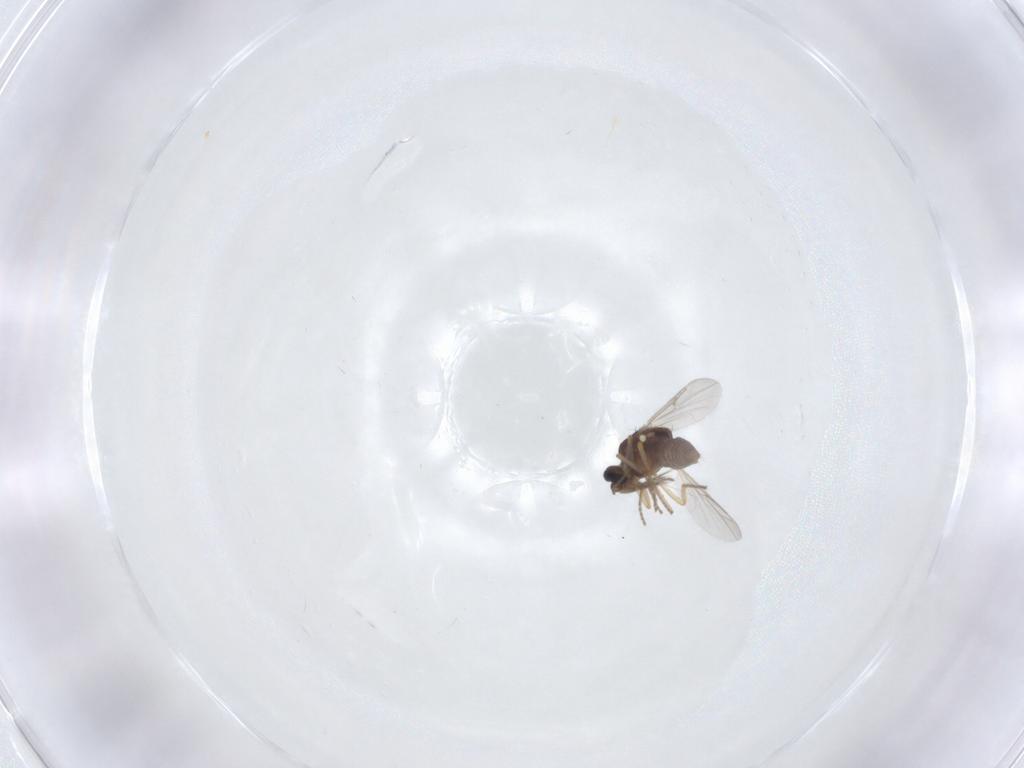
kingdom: Animalia
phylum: Arthropoda
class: Insecta
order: Diptera
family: Ceratopogonidae
